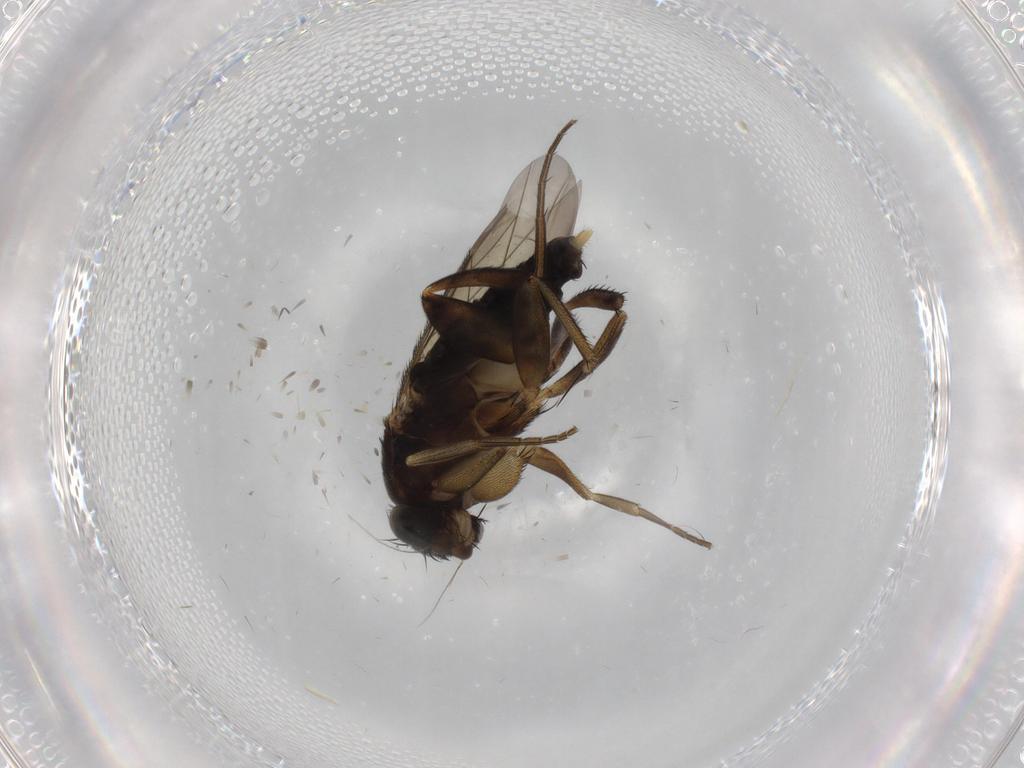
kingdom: Animalia
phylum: Arthropoda
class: Insecta
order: Diptera
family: Phoridae
